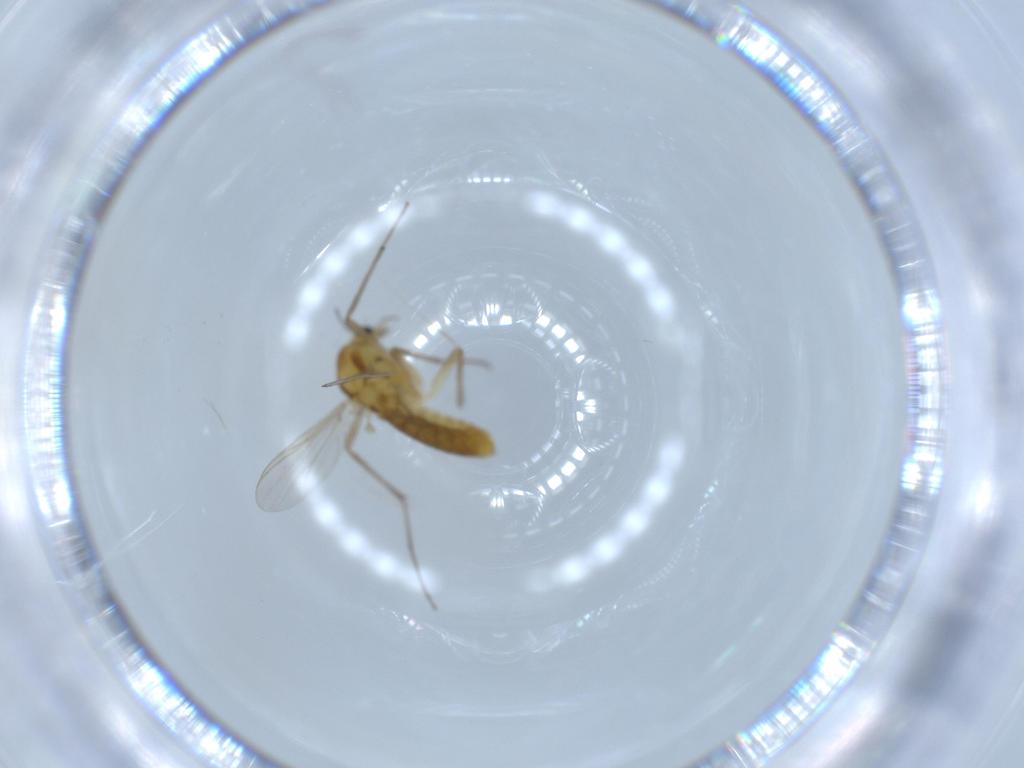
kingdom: Animalia
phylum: Arthropoda
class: Insecta
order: Diptera
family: Chironomidae
